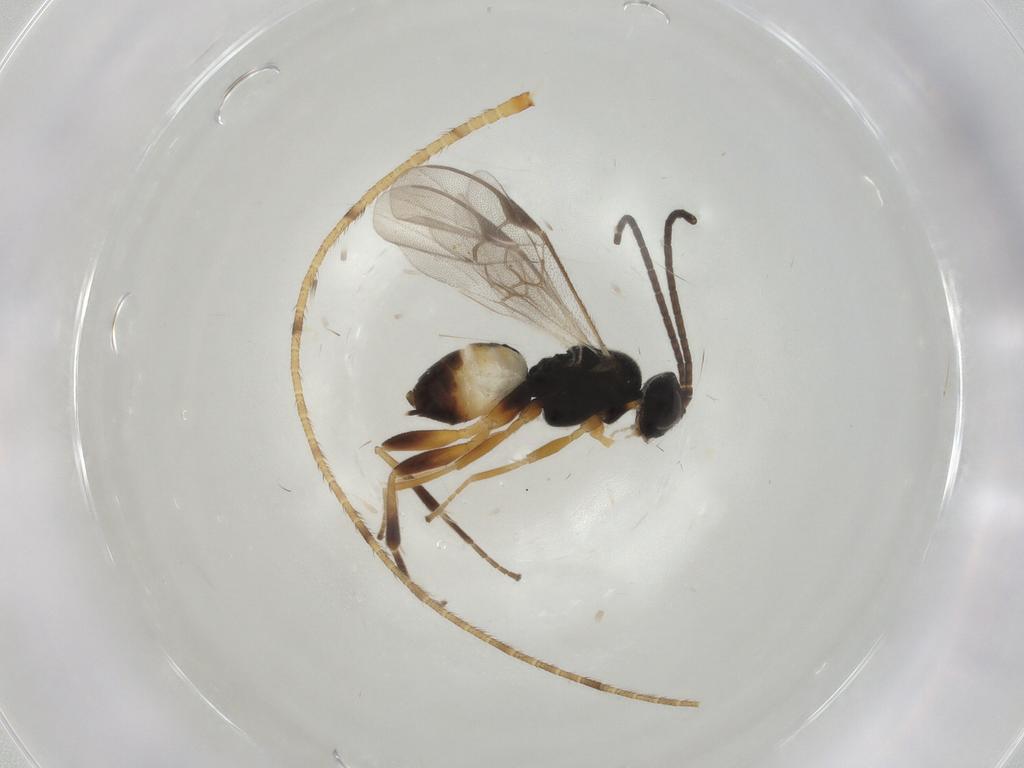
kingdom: Animalia
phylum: Arthropoda
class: Insecta
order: Hymenoptera
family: Braconidae
